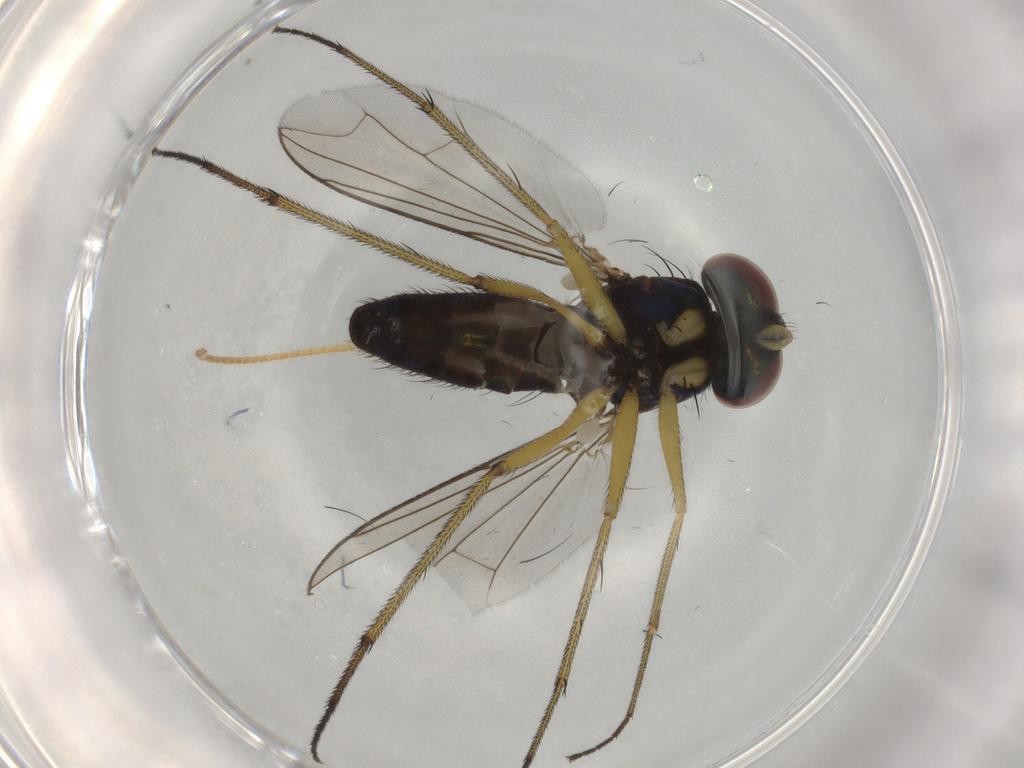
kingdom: Animalia
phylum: Arthropoda
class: Insecta
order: Diptera
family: Dolichopodidae
